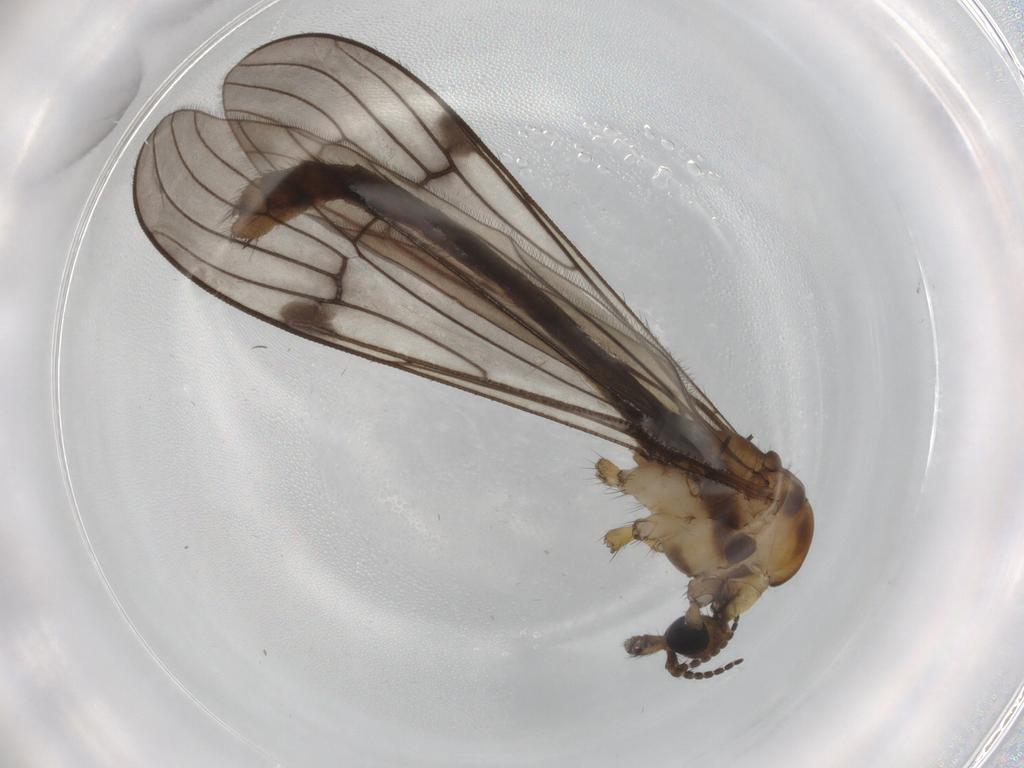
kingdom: Animalia
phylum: Arthropoda
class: Insecta
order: Diptera
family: Limoniidae
